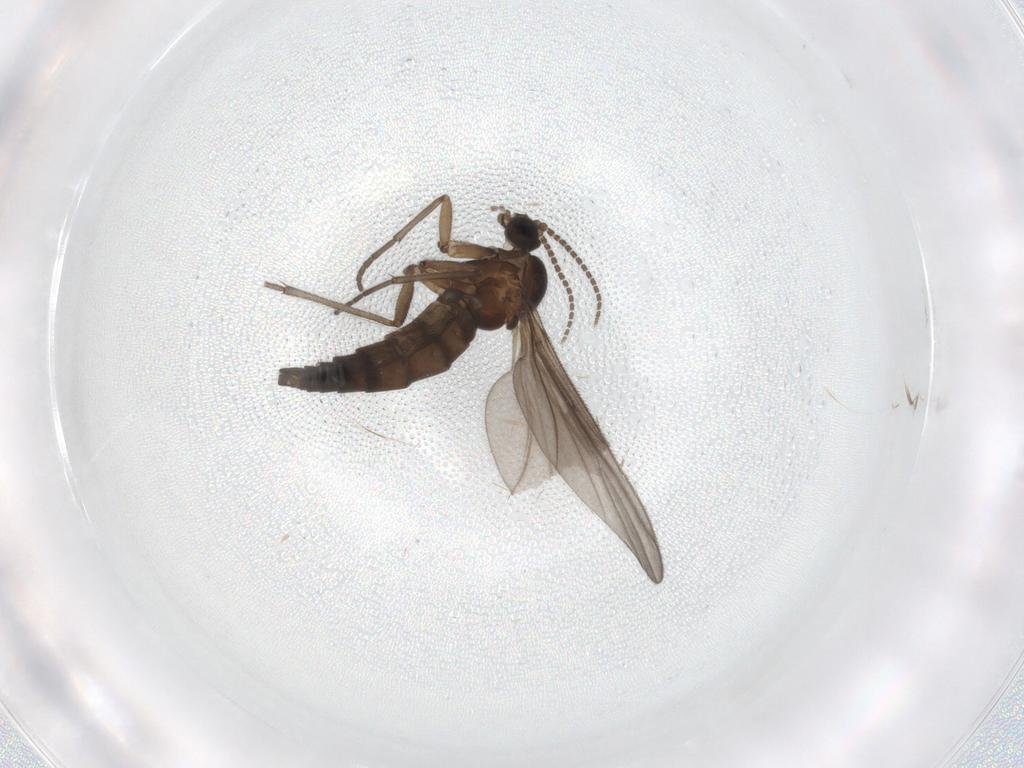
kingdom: Animalia
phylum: Arthropoda
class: Insecta
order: Diptera
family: Sciaridae
